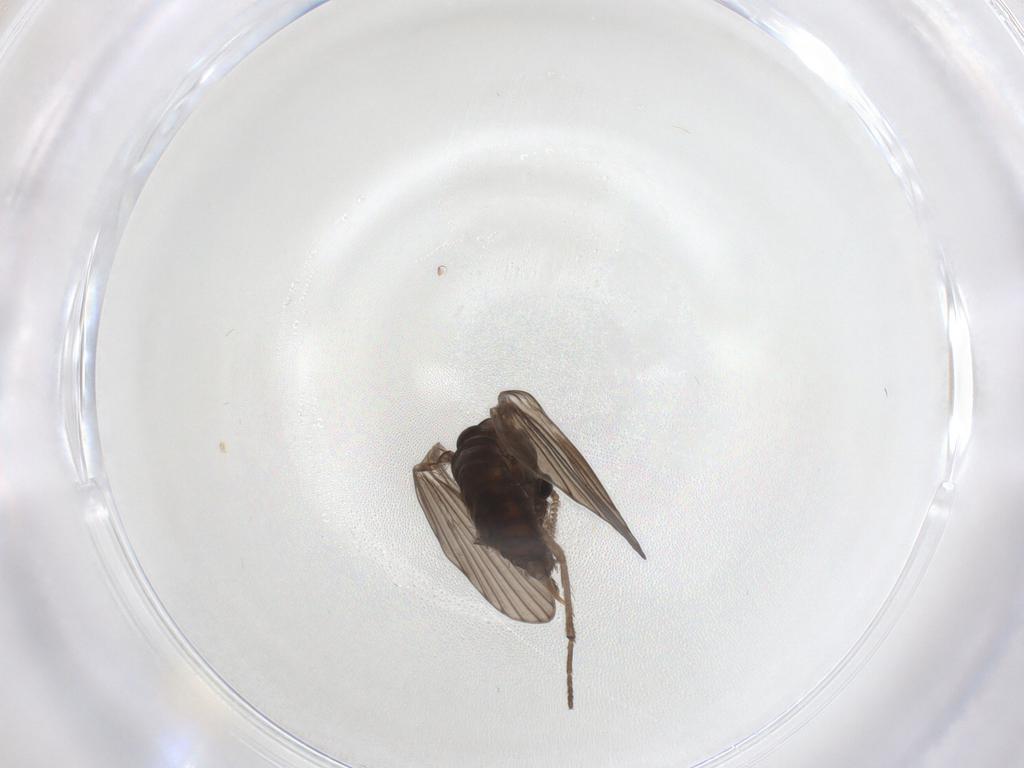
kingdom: Animalia
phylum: Arthropoda
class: Insecta
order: Diptera
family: Psychodidae
